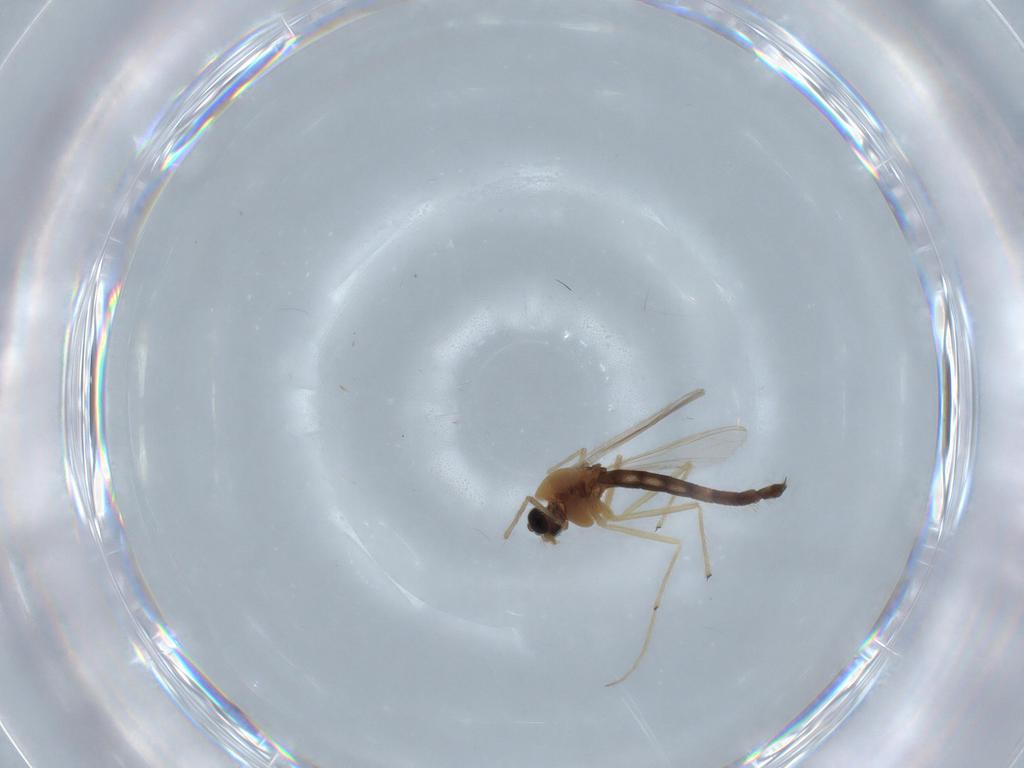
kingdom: Animalia
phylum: Arthropoda
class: Insecta
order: Diptera
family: Chironomidae
